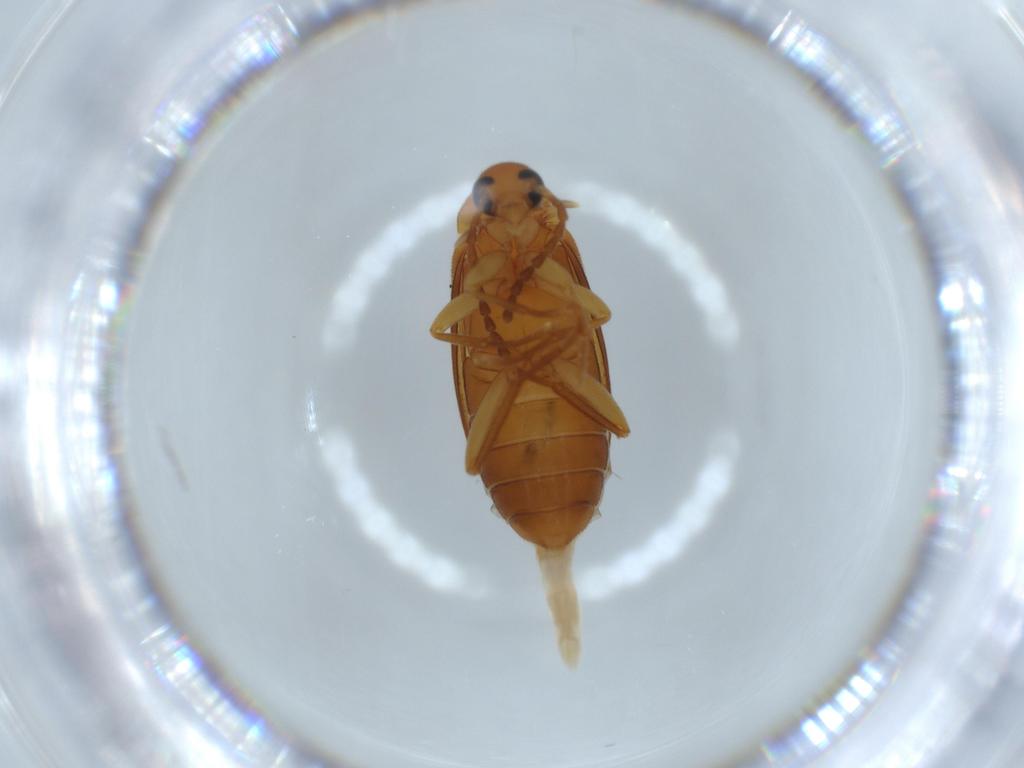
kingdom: Animalia
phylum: Arthropoda
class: Insecta
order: Coleoptera
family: Scraptiidae
